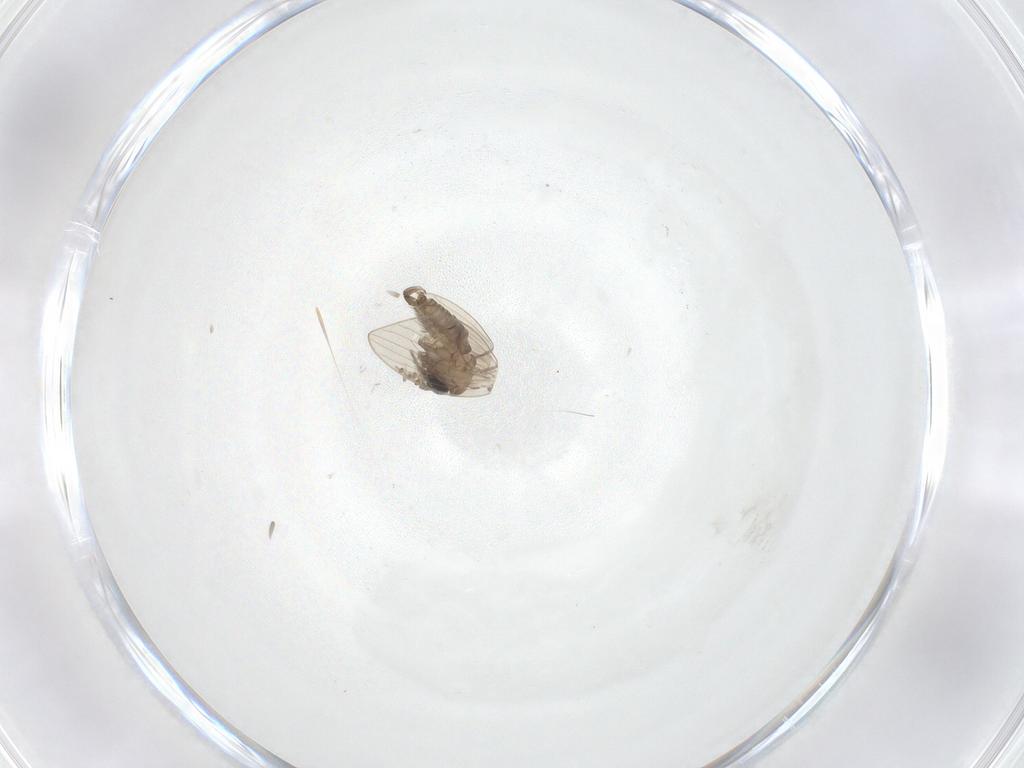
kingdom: Animalia
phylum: Arthropoda
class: Insecta
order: Diptera
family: Psychodidae
